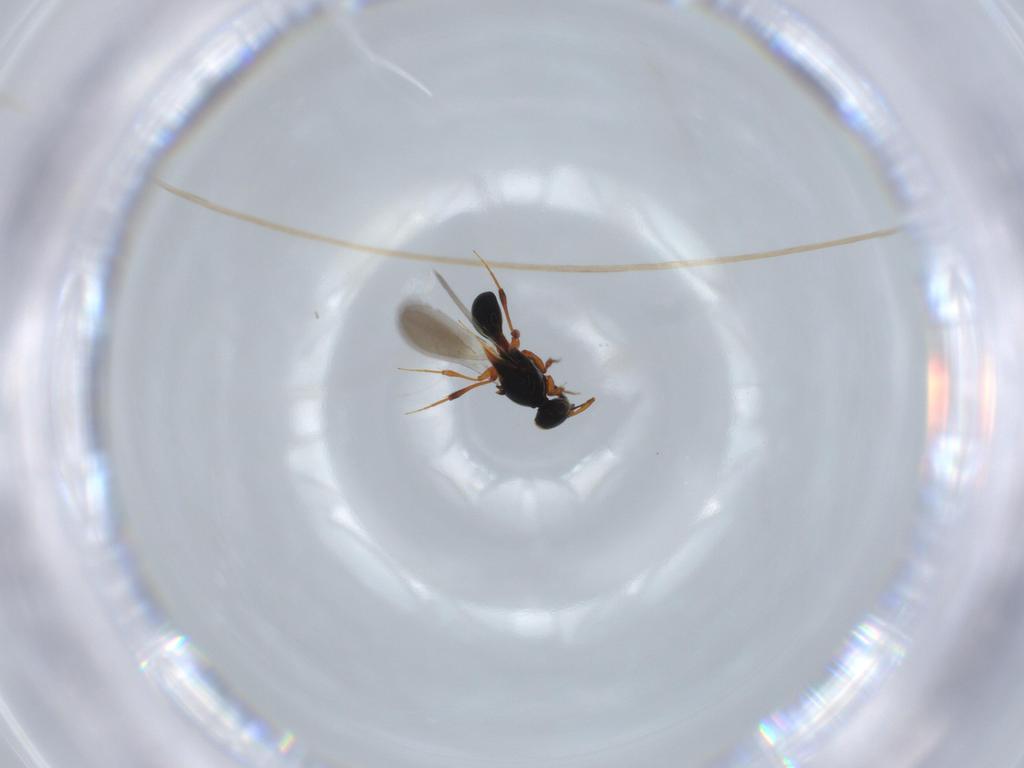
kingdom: Animalia
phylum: Arthropoda
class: Insecta
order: Hymenoptera
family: Platygastridae
